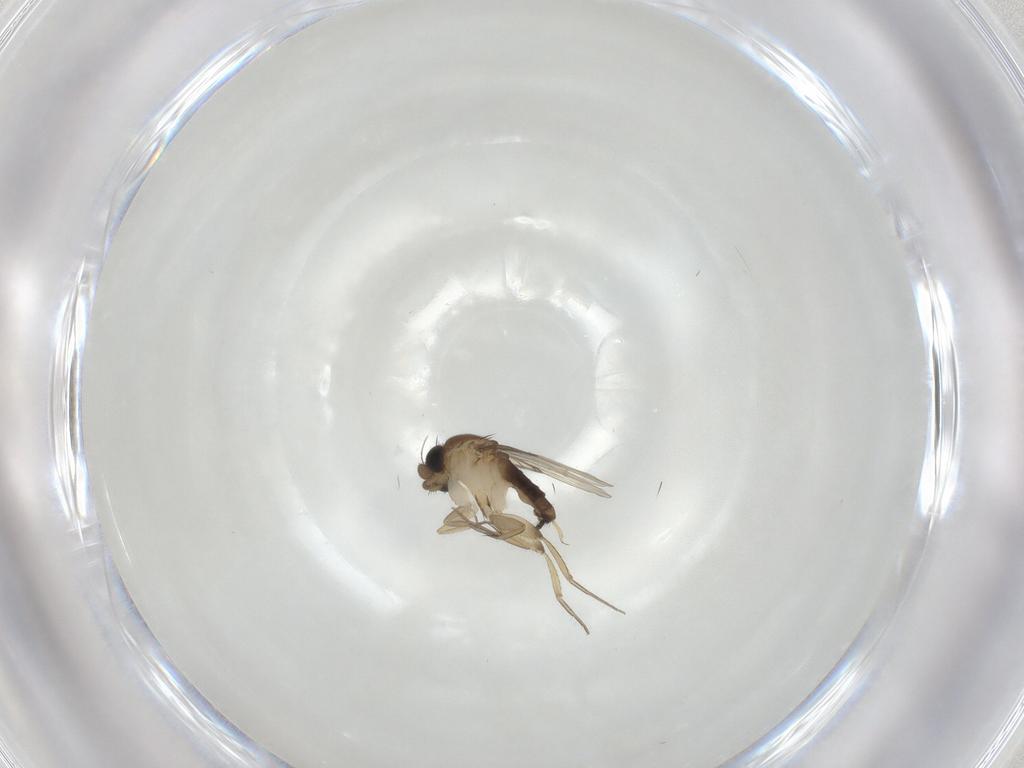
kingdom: Animalia
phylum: Arthropoda
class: Insecta
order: Diptera
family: Phoridae
